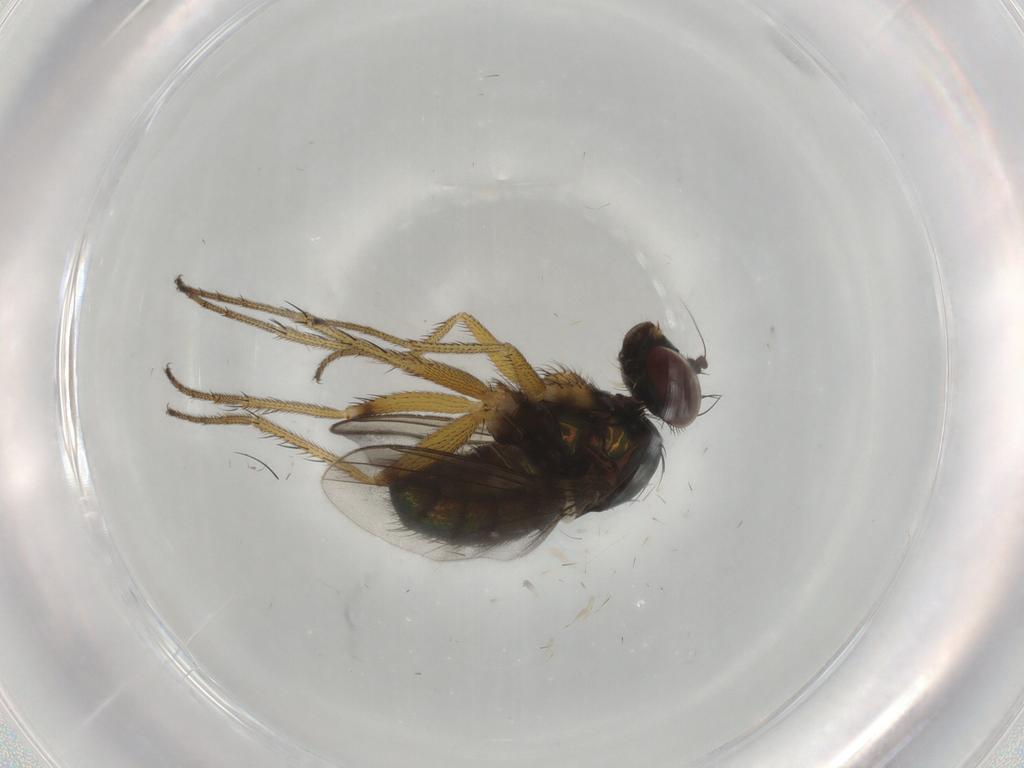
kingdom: Animalia
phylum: Arthropoda
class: Insecta
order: Diptera
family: Dolichopodidae
